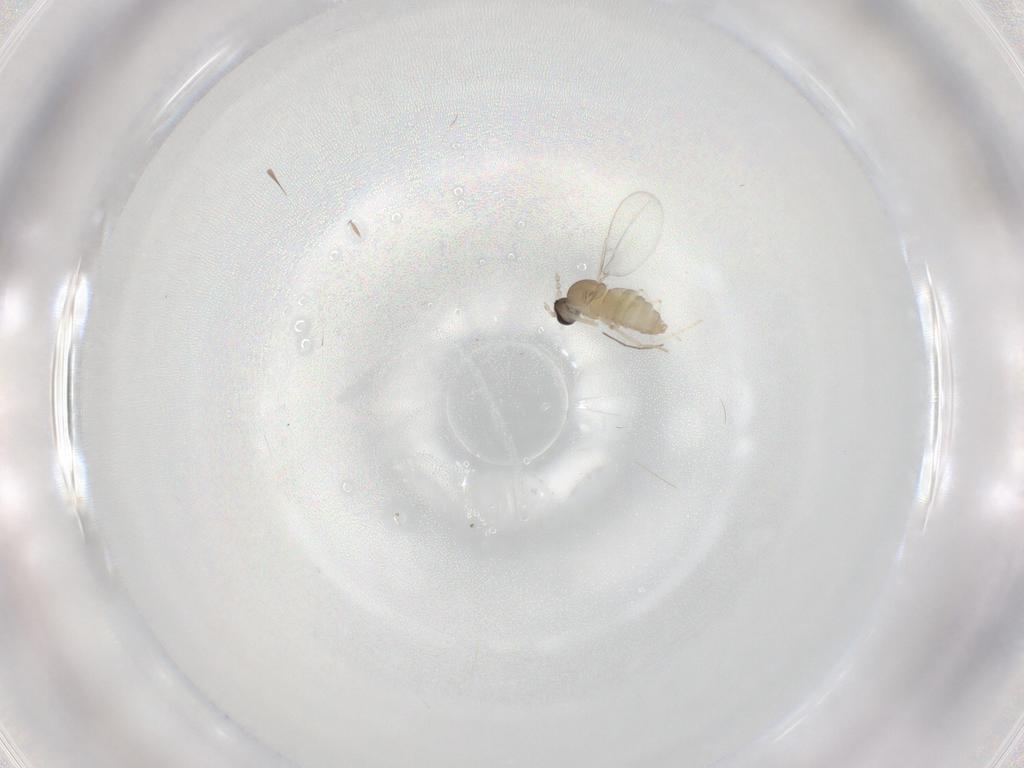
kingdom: Animalia
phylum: Arthropoda
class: Insecta
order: Diptera
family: Cecidomyiidae
